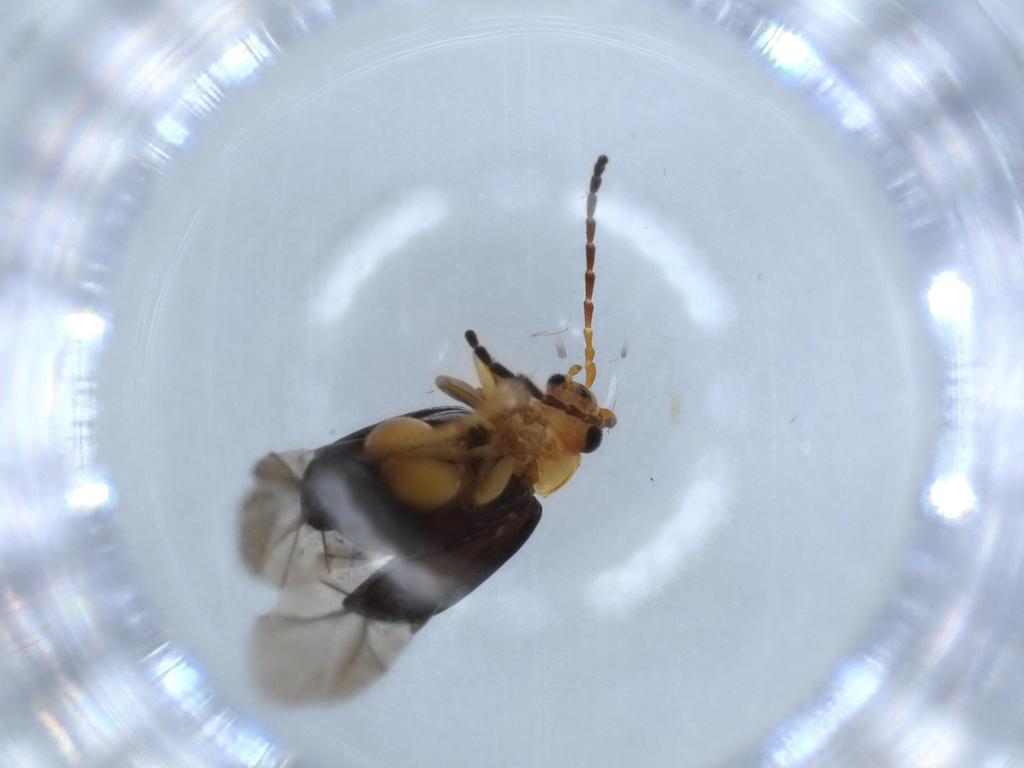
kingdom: Animalia
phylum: Arthropoda
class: Insecta
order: Coleoptera
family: Chrysomelidae
